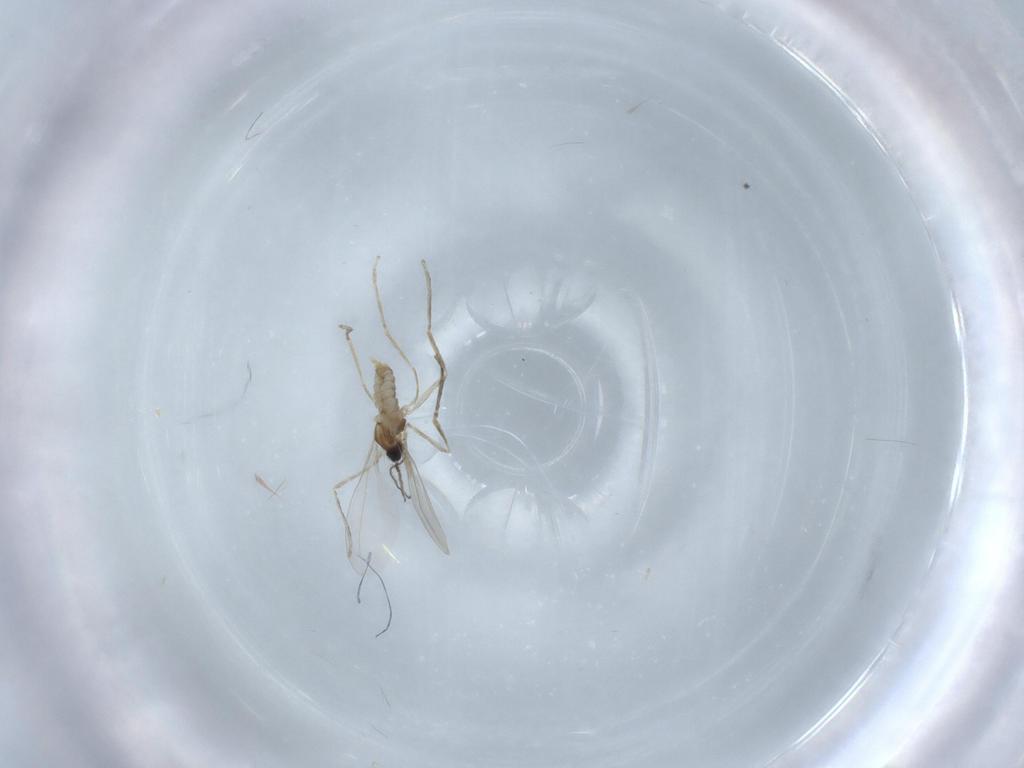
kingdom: Animalia
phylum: Arthropoda
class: Insecta
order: Diptera
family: Cecidomyiidae
